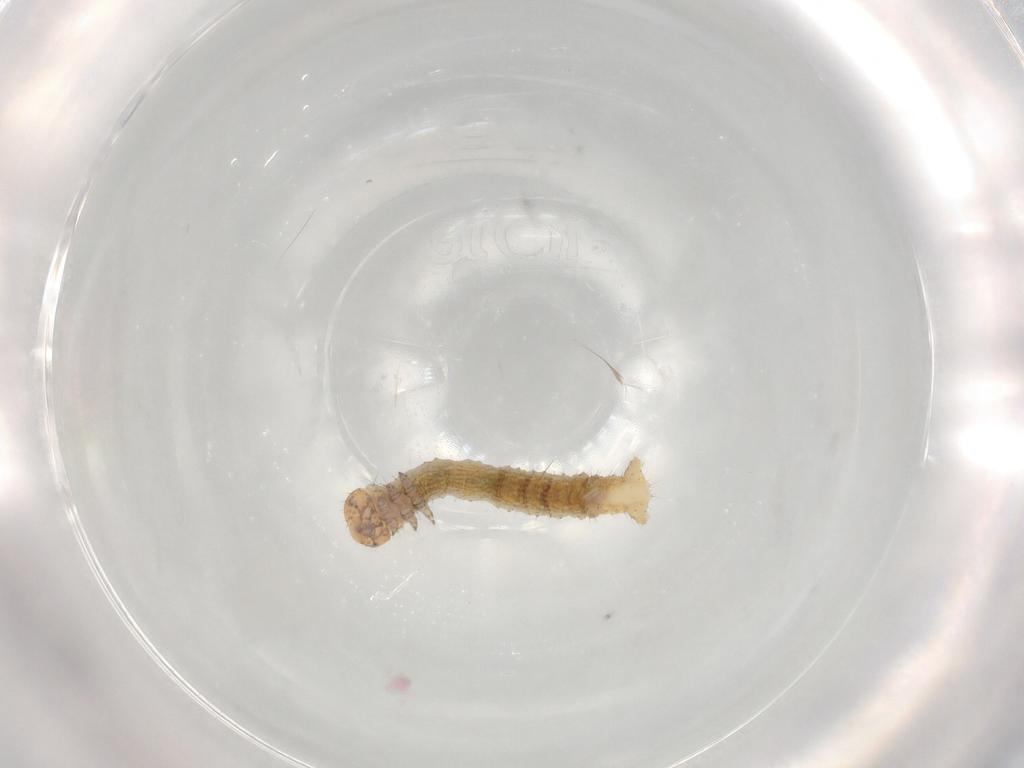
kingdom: Animalia
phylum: Arthropoda
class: Insecta
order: Lepidoptera
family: Geometridae
